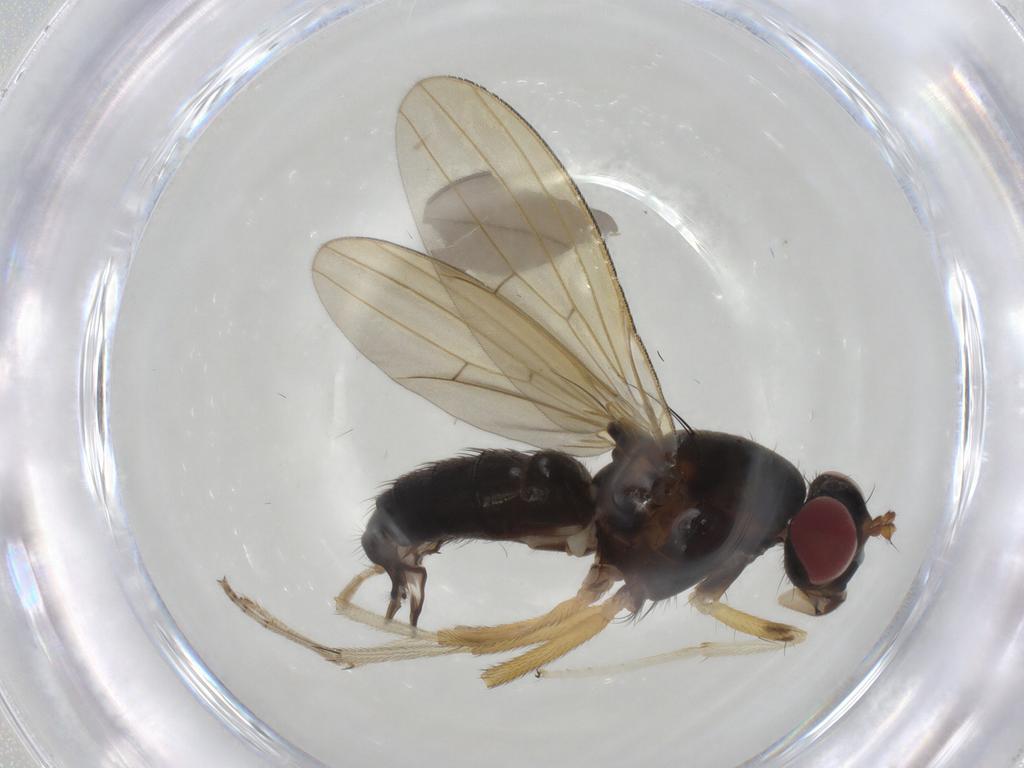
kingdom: Animalia
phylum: Arthropoda
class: Insecta
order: Diptera
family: Sciaridae
